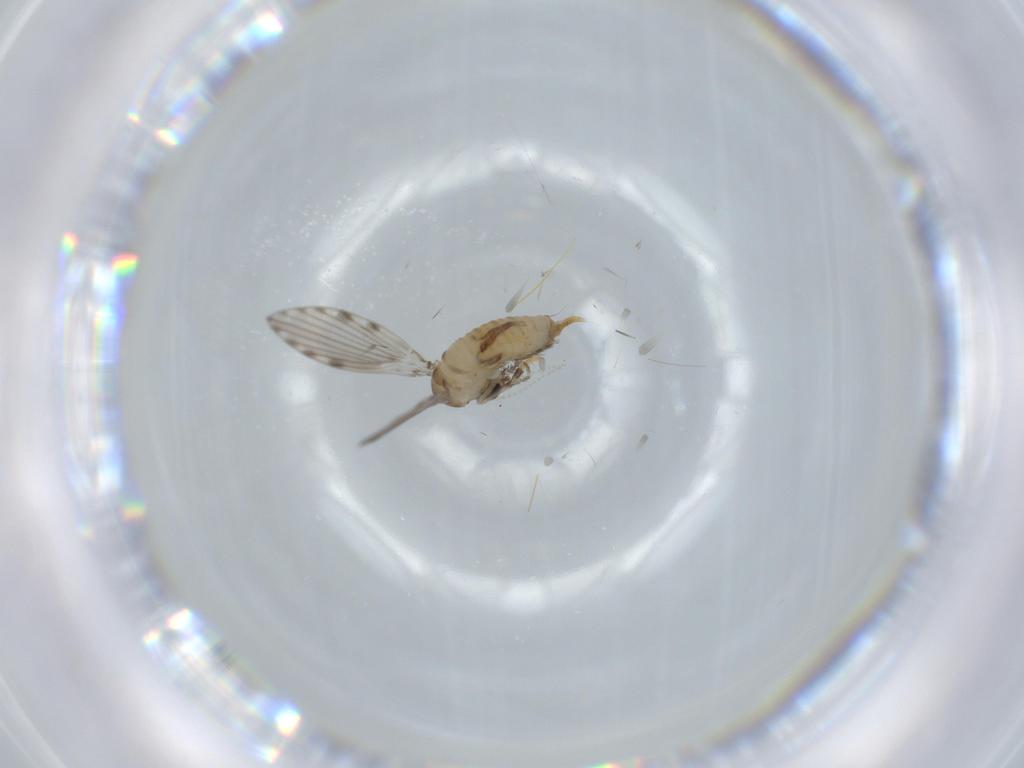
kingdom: Animalia
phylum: Arthropoda
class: Insecta
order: Diptera
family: Psychodidae
